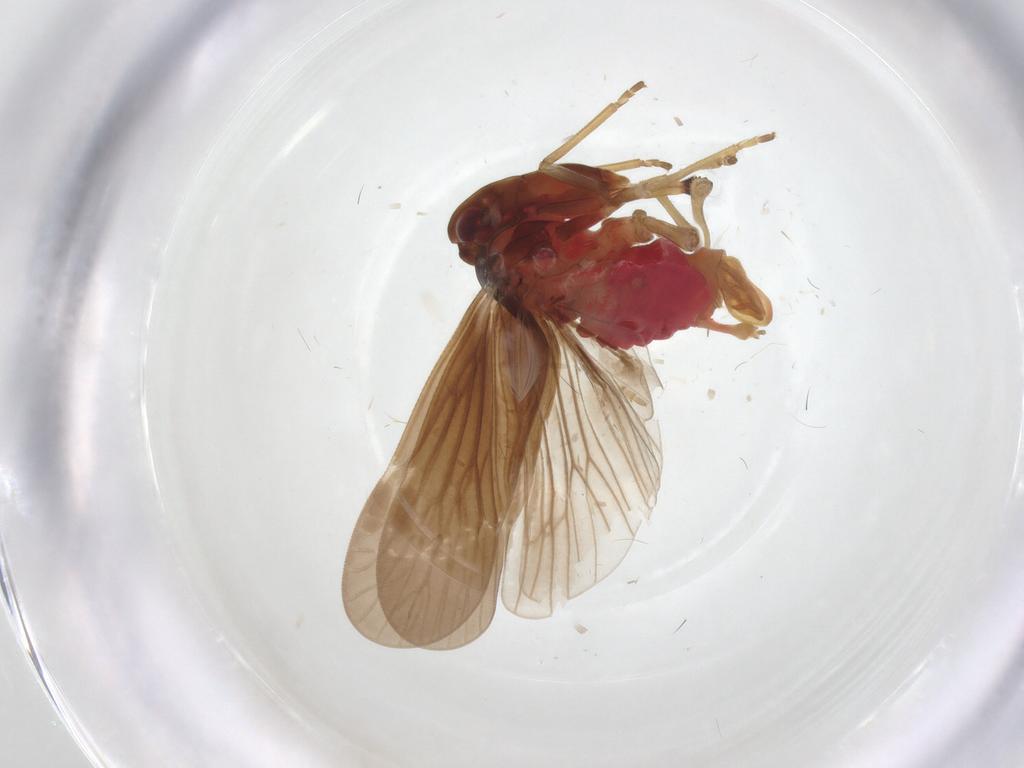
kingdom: Animalia
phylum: Arthropoda
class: Insecta
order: Hemiptera
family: Derbidae
